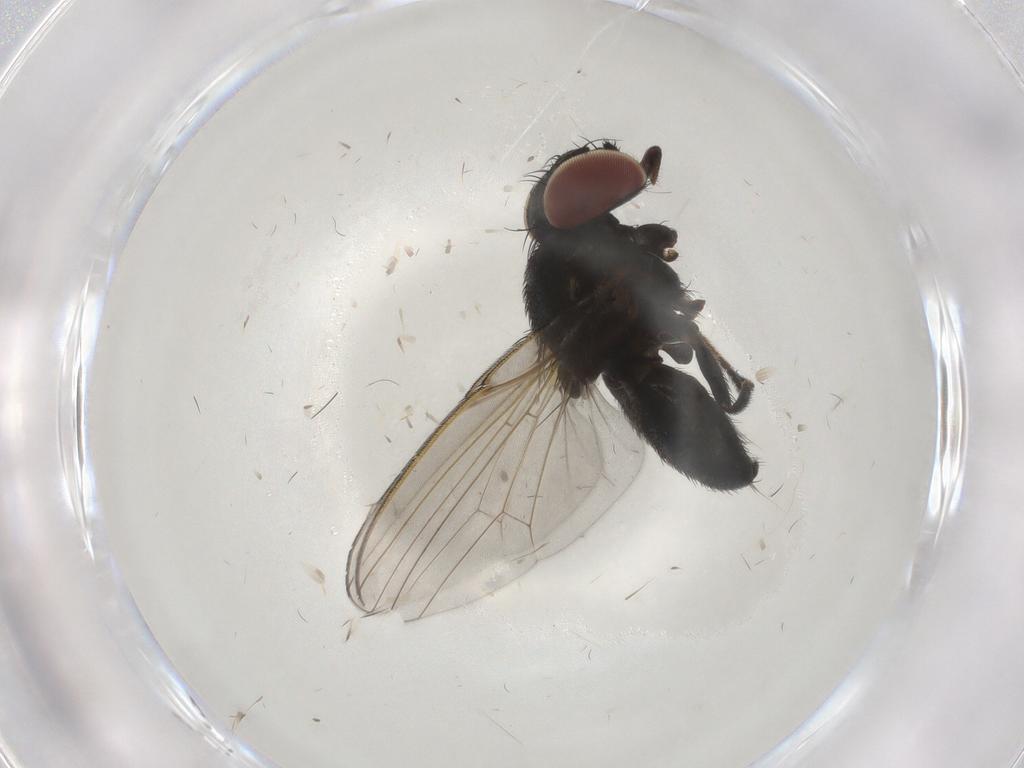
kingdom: Animalia
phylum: Arthropoda
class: Insecta
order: Diptera
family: Milichiidae
